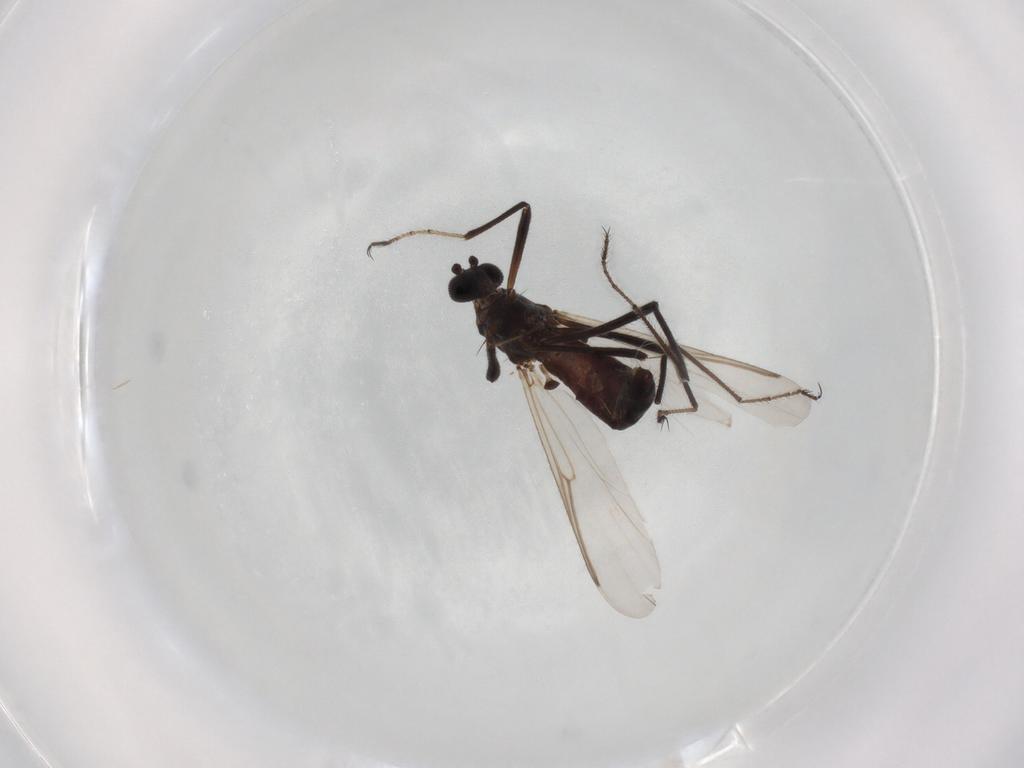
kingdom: Animalia
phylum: Arthropoda
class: Insecta
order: Diptera
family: Ceratopogonidae
